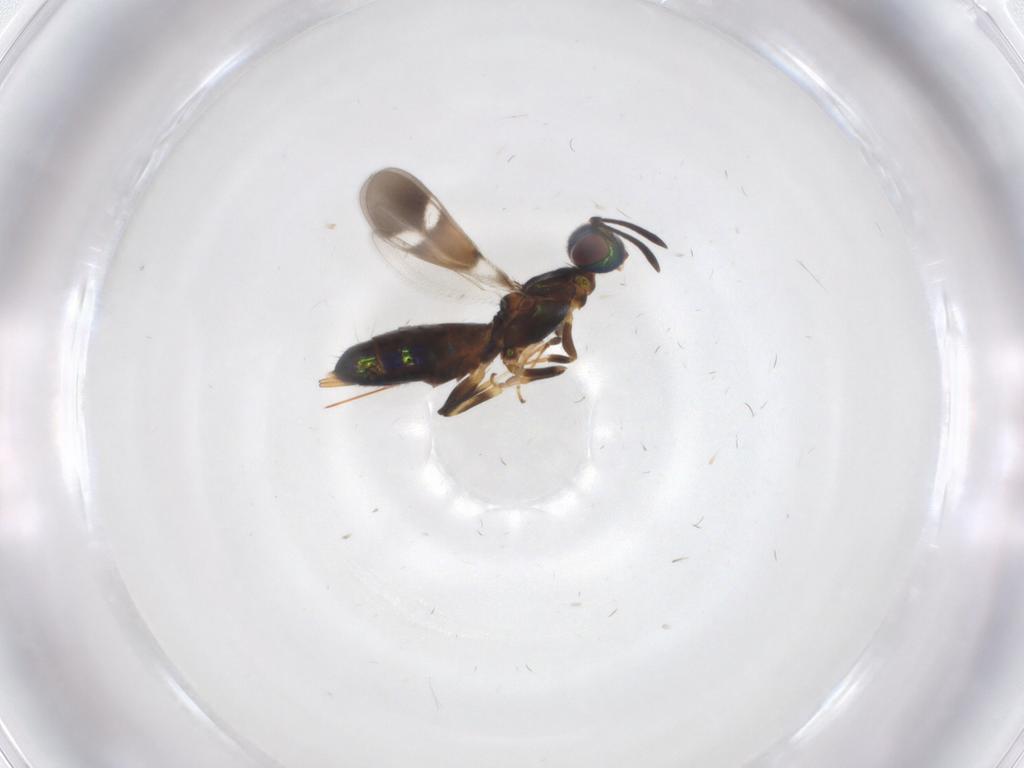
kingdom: Animalia
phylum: Arthropoda
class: Insecta
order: Hymenoptera
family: Eupelmidae
